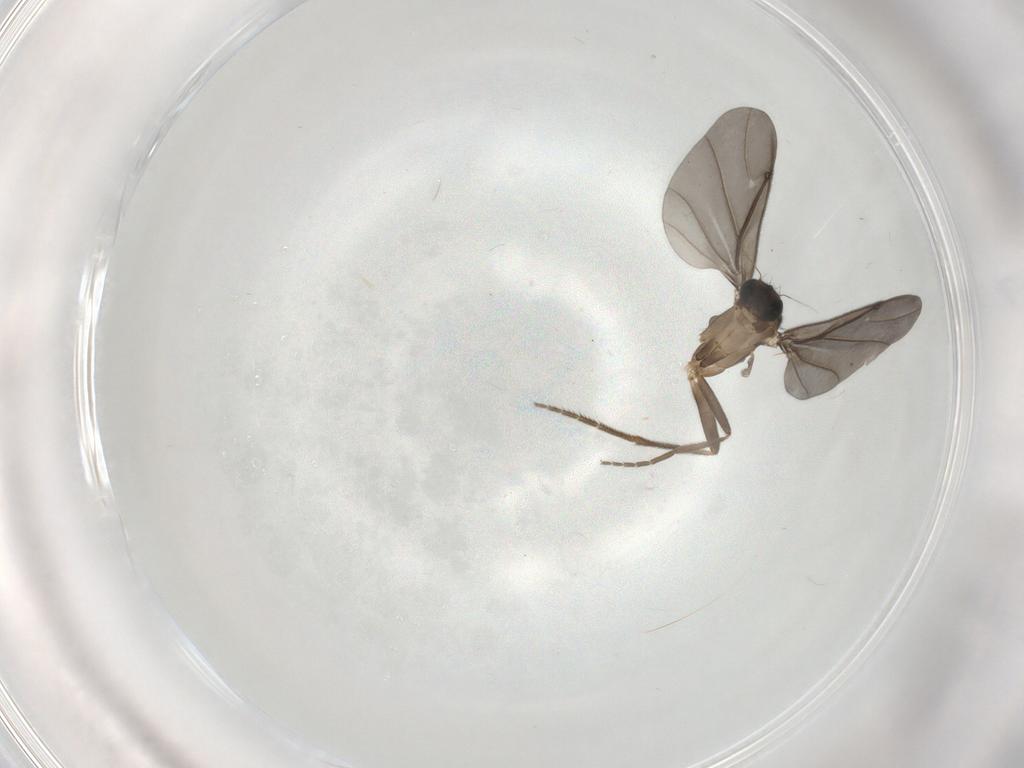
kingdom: Animalia
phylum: Arthropoda
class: Insecta
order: Diptera
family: Phoridae
